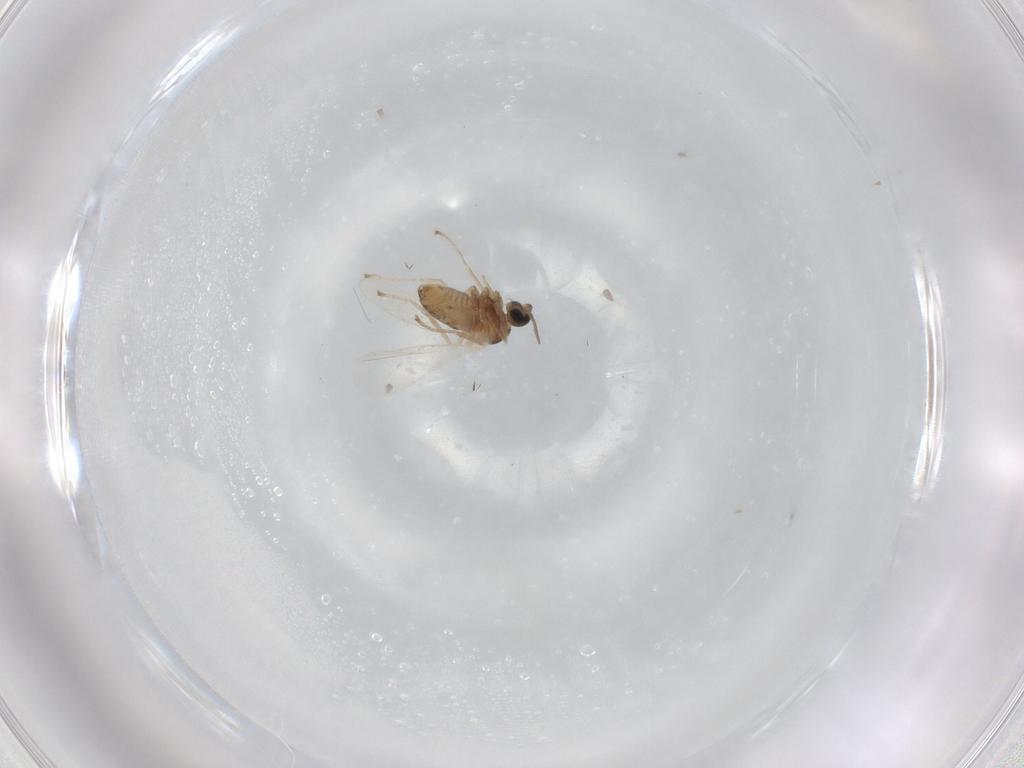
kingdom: Animalia
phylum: Arthropoda
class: Insecta
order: Diptera
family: Cecidomyiidae
